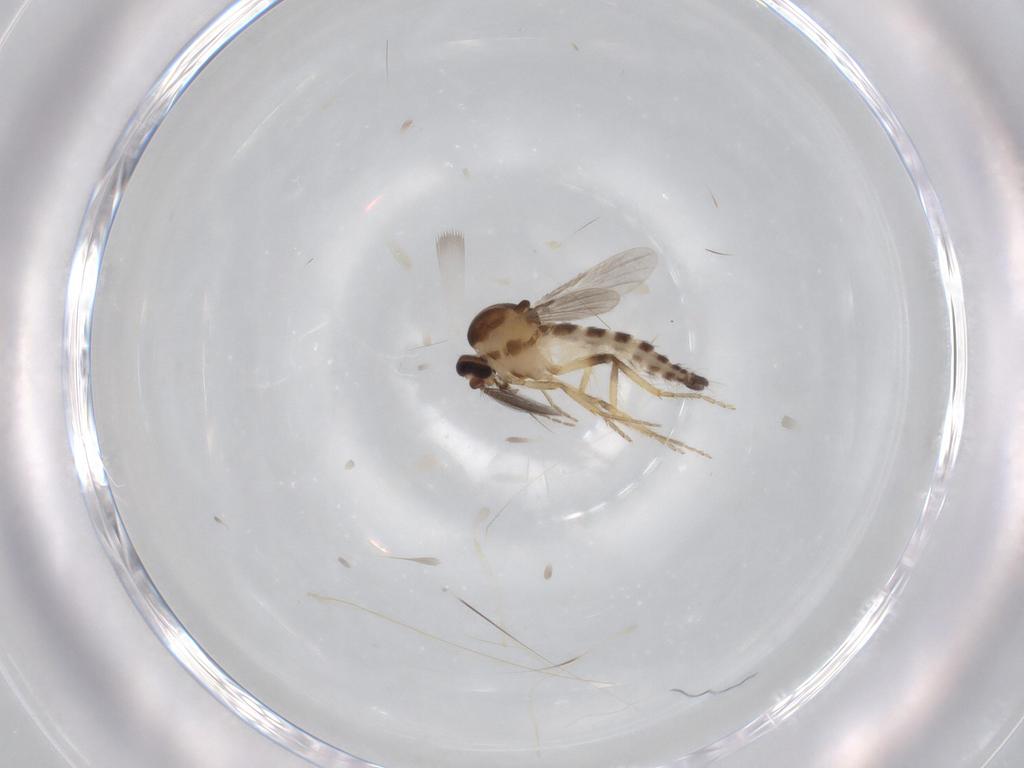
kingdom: Animalia
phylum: Arthropoda
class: Insecta
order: Diptera
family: Ceratopogonidae
